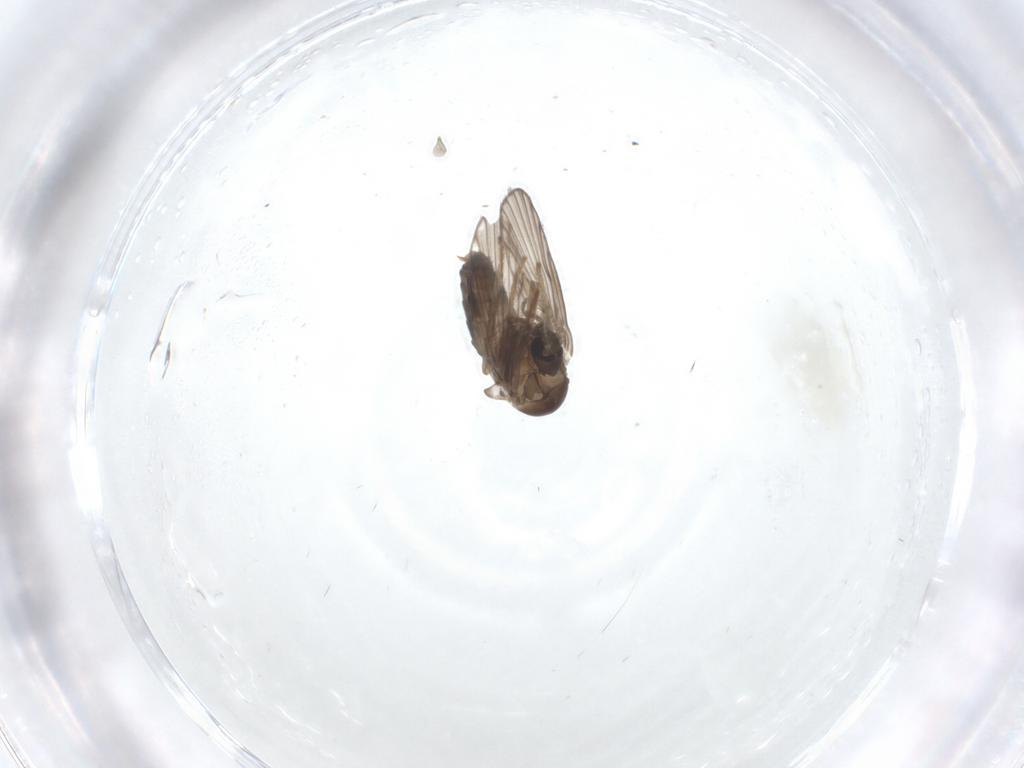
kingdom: Animalia
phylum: Arthropoda
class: Insecta
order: Diptera
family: Psychodidae
